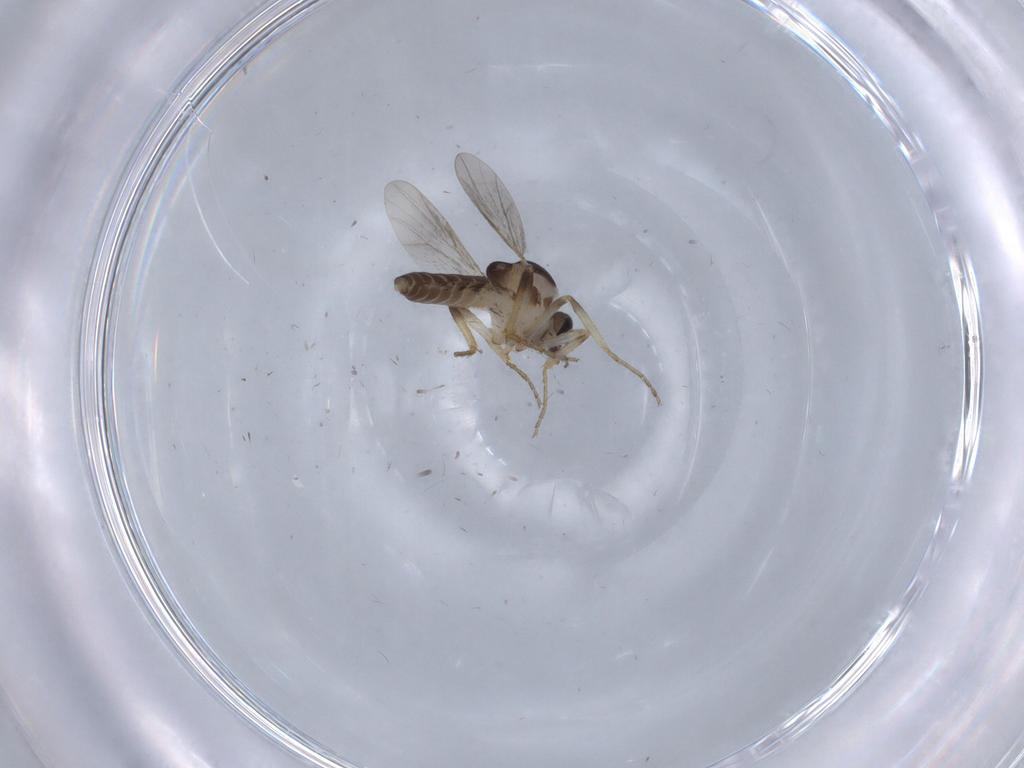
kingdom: Animalia
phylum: Arthropoda
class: Insecta
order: Diptera
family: Ceratopogonidae
